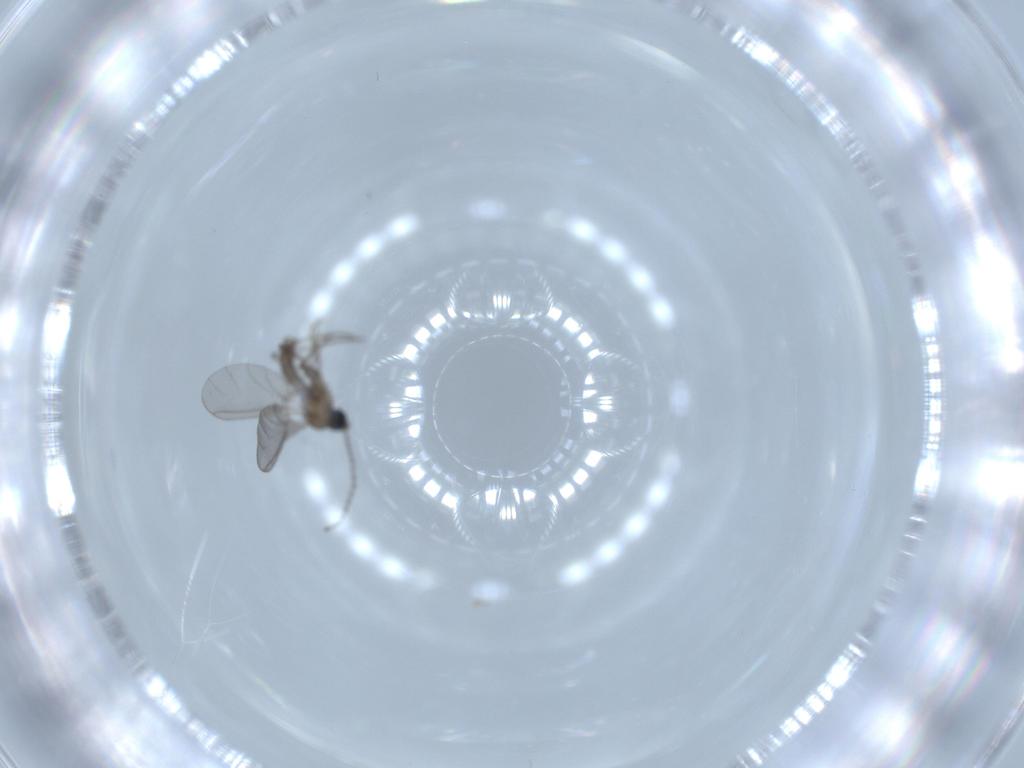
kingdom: Animalia
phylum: Arthropoda
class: Insecta
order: Diptera
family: Sciaridae
